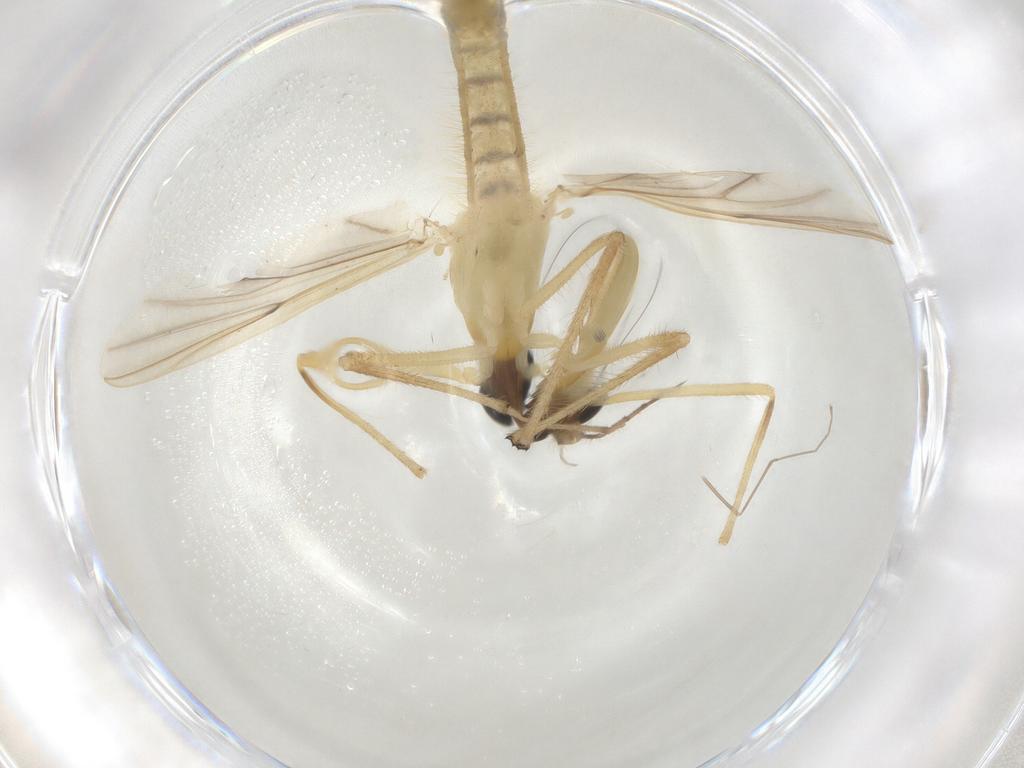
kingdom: Animalia
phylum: Arthropoda
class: Insecta
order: Diptera
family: Chironomidae
